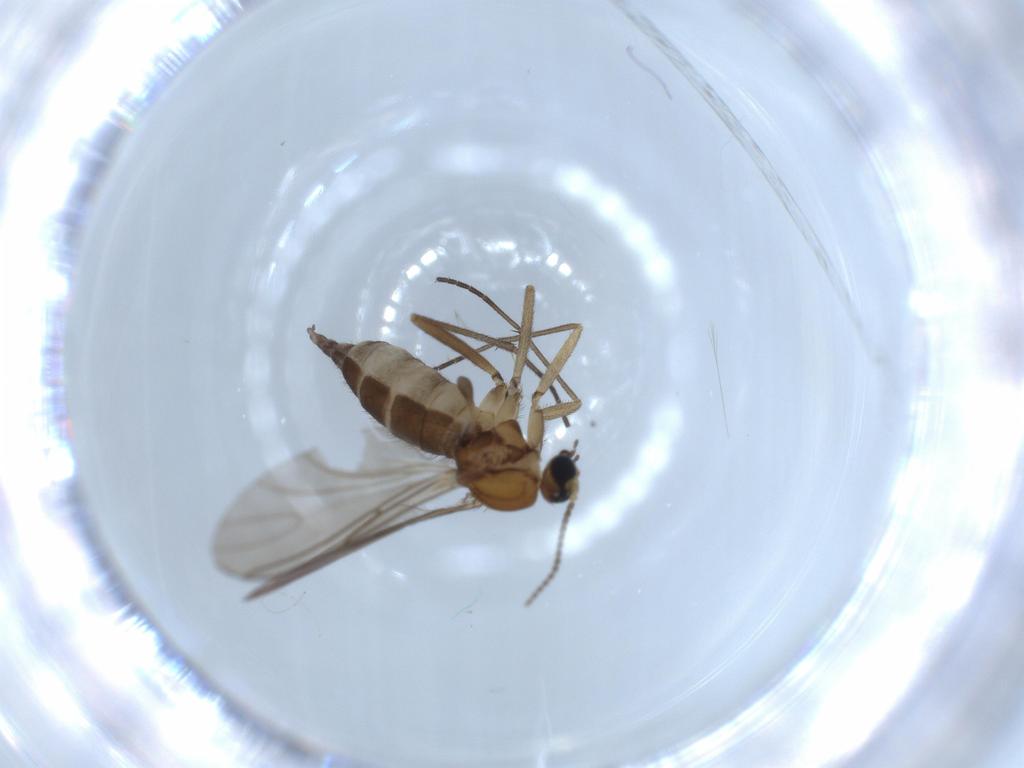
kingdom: Animalia
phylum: Arthropoda
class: Insecta
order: Diptera
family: Sciaridae
